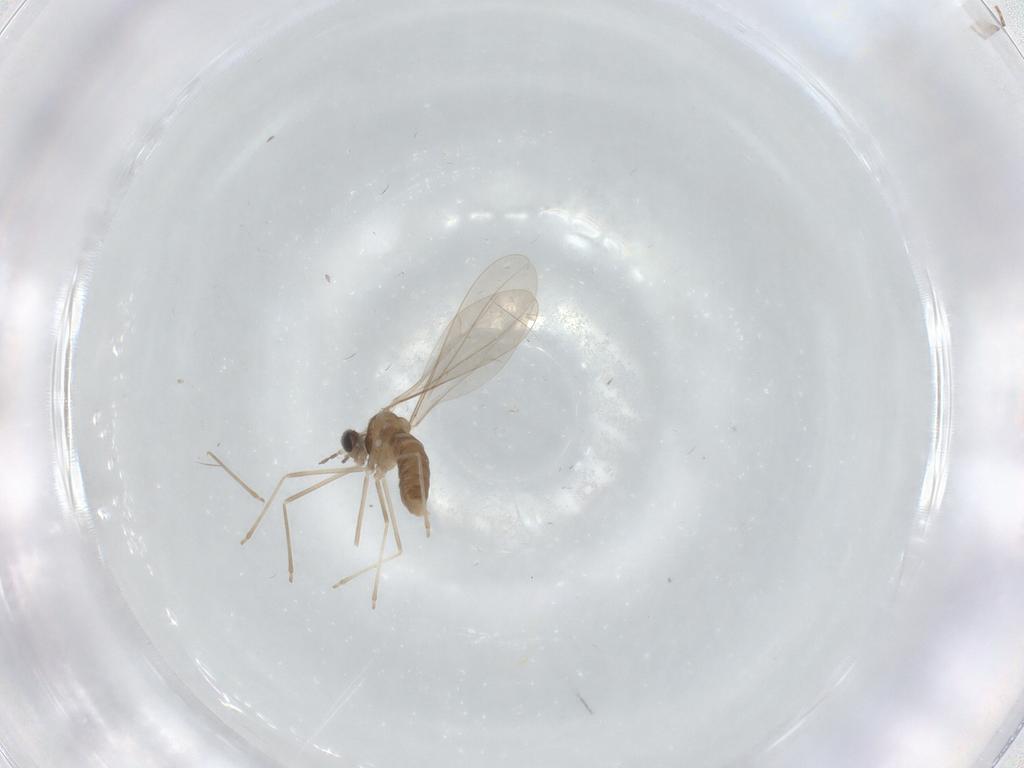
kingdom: Animalia
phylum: Arthropoda
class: Insecta
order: Diptera
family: Cecidomyiidae
